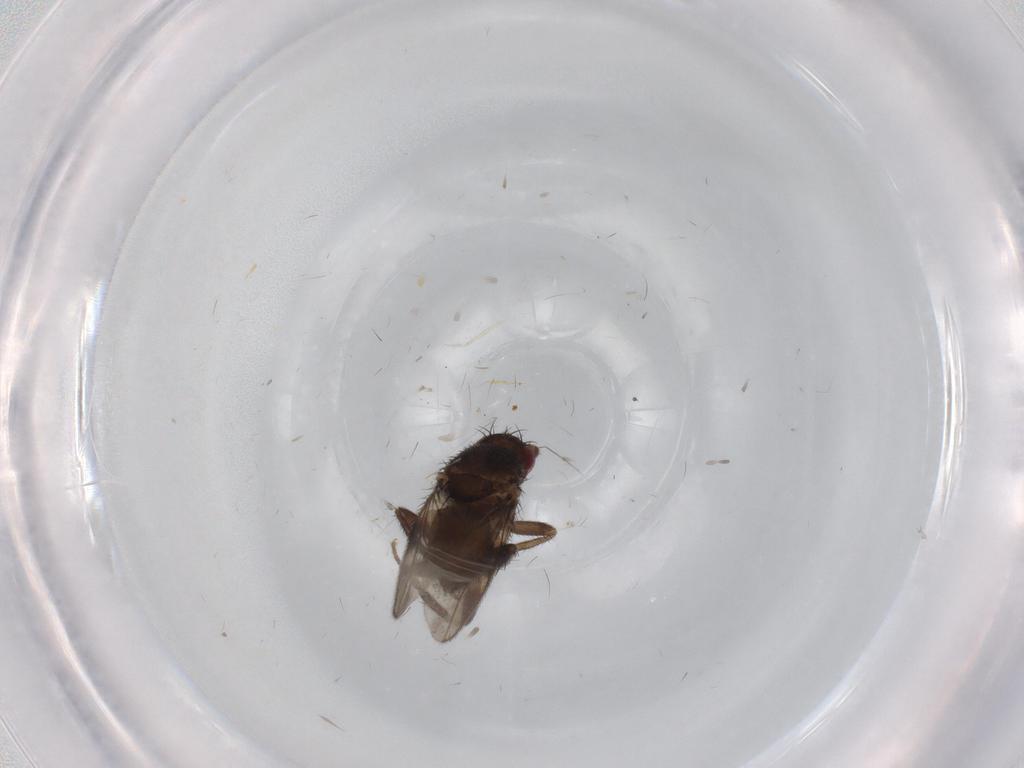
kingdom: Animalia
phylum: Arthropoda
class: Insecta
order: Diptera
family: Sphaeroceridae
